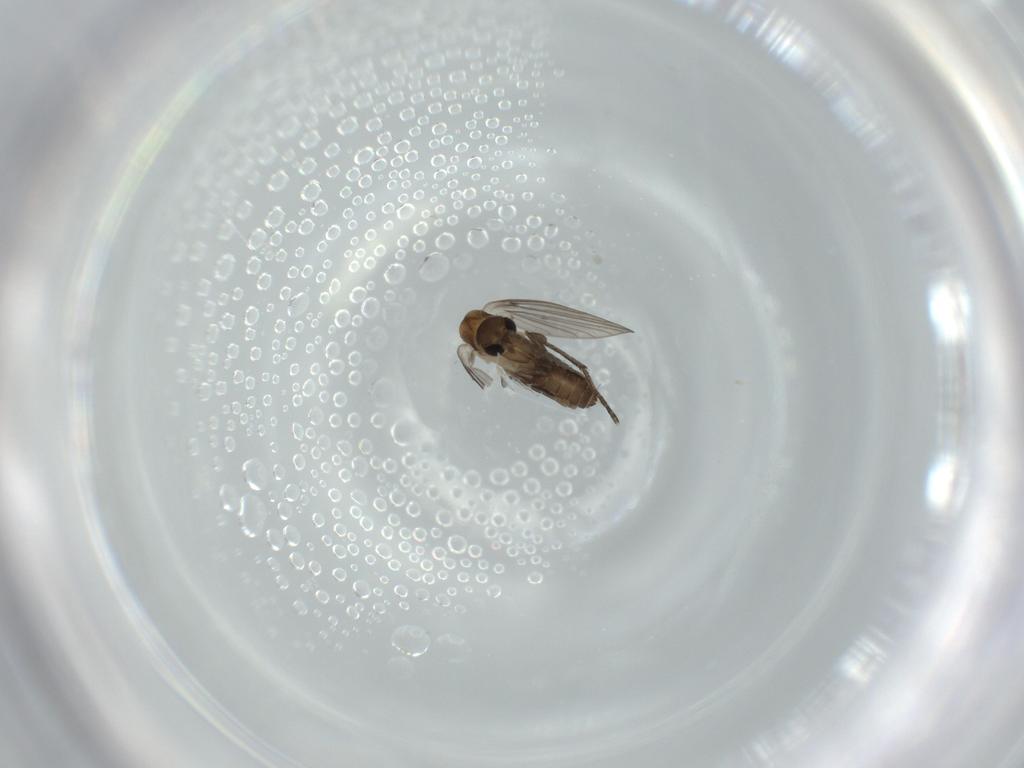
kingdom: Animalia
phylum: Arthropoda
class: Insecta
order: Diptera
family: Psychodidae
